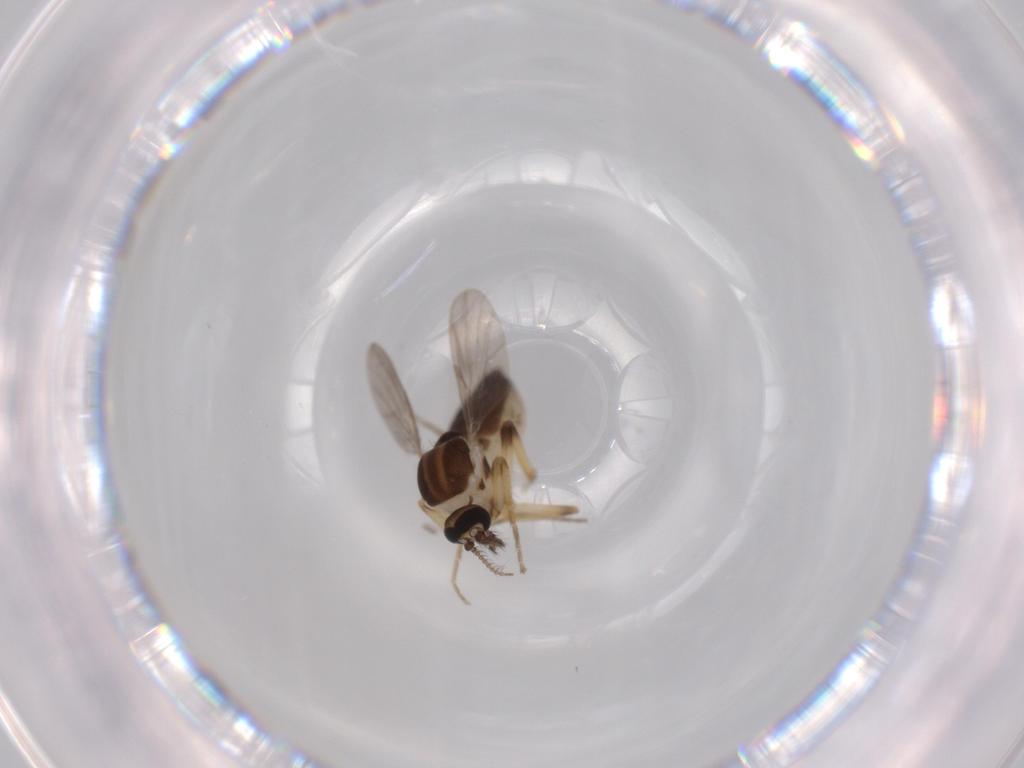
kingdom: Animalia
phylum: Arthropoda
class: Insecta
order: Diptera
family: Ceratopogonidae
